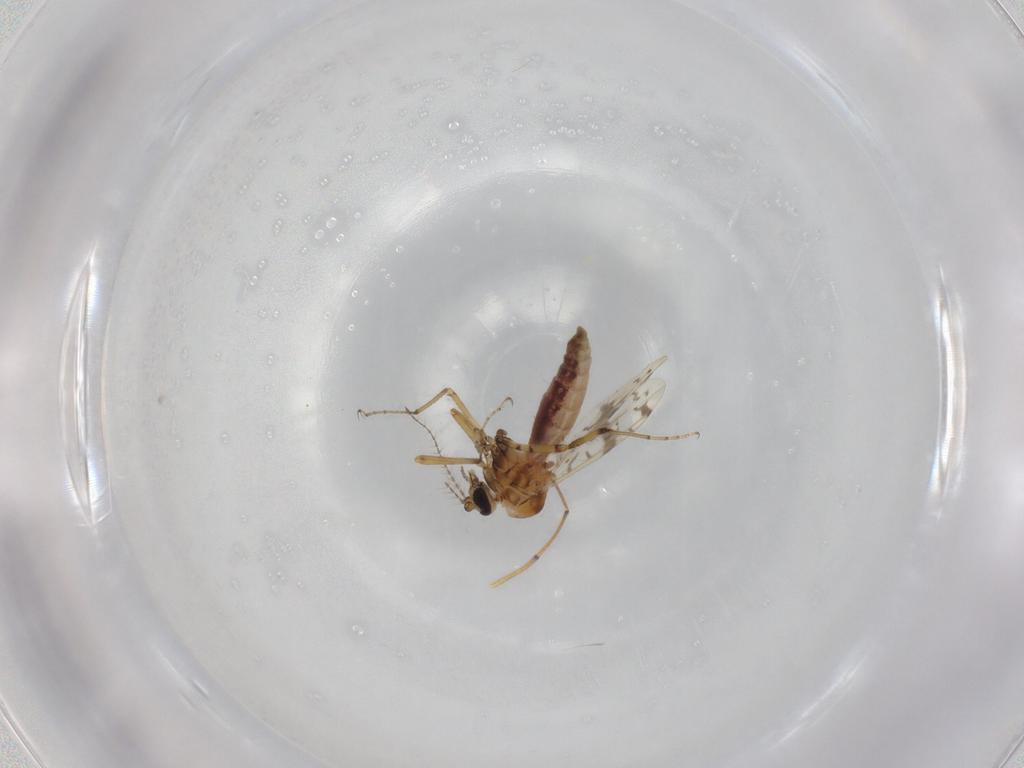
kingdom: Animalia
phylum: Arthropoda
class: Insecta
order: Diptera
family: Ceratopogonidae
